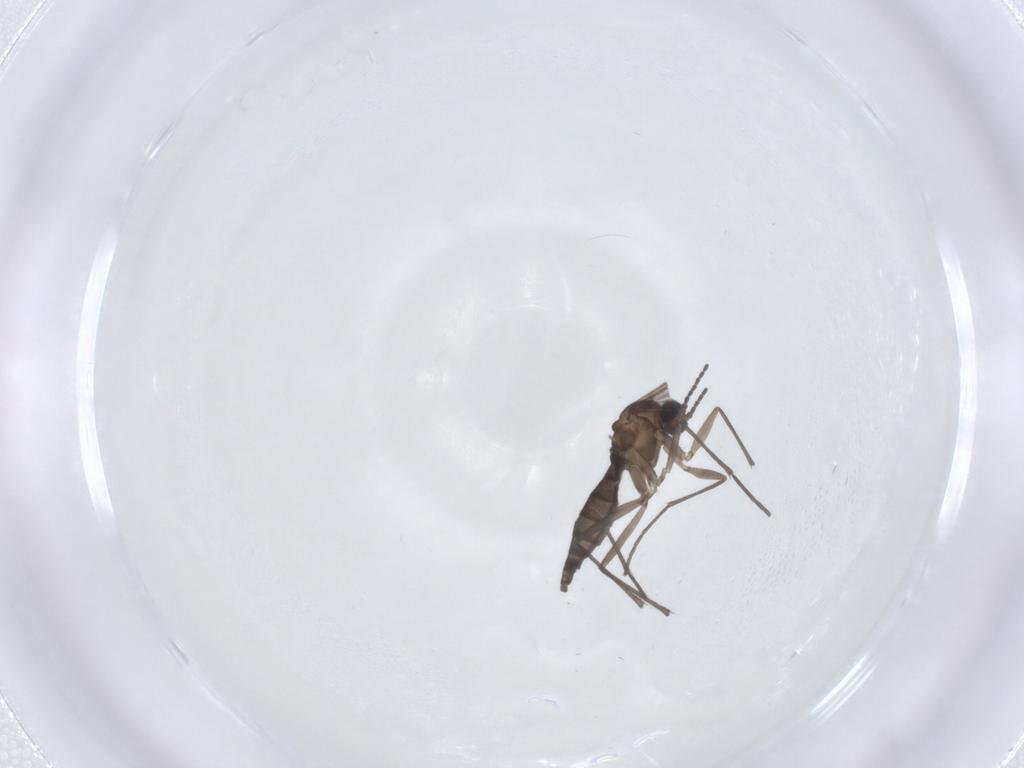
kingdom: Animalia
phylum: Arthropoda
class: Insecta
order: Diptera
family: Sciaridae
